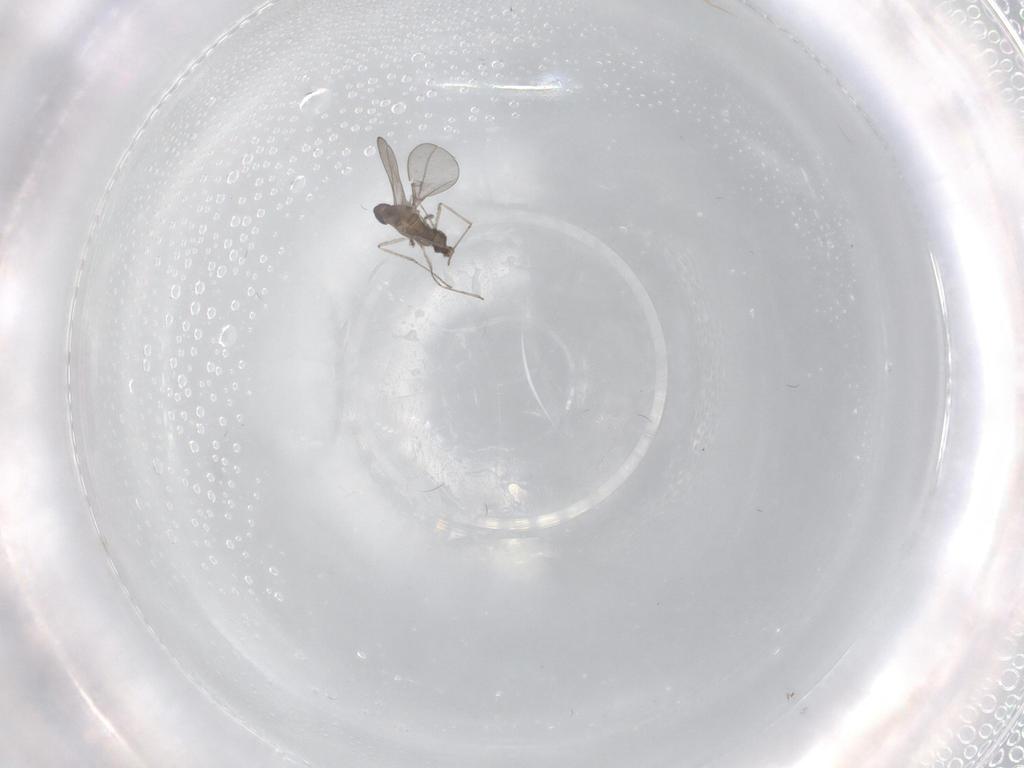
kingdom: Animalia
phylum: Arthropoda
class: Insecta
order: Diptera
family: Cecidomyiidae
